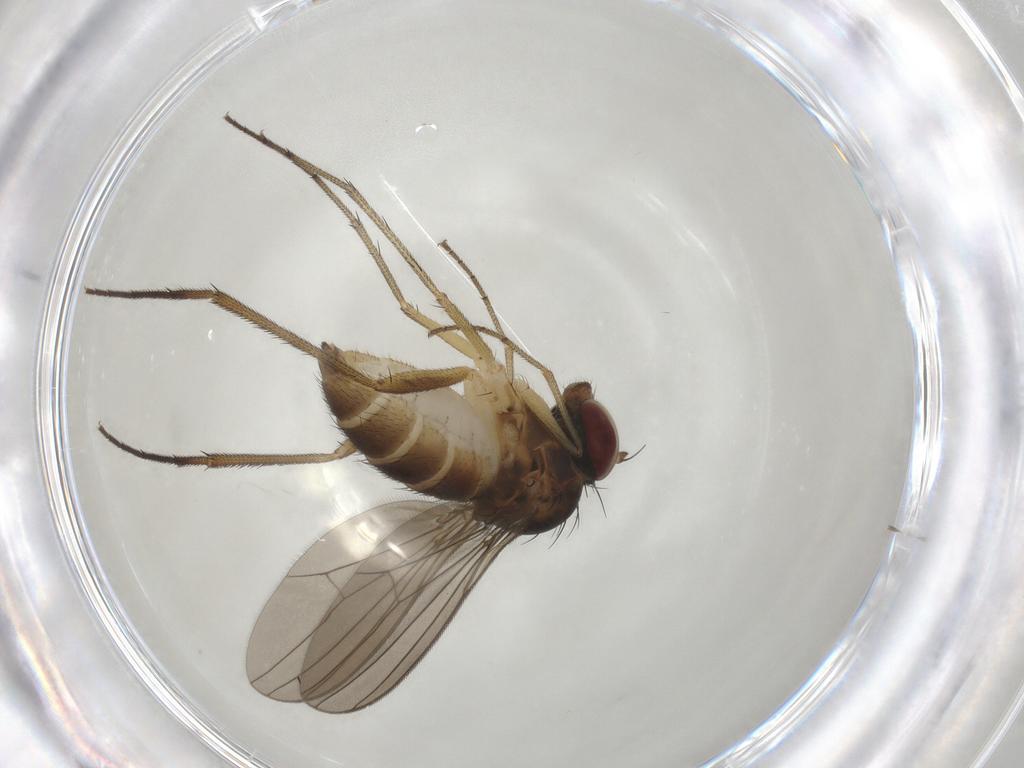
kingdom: Animalia
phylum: Arthropoda
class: Insecta
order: Diptera
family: Dolichopodidae
